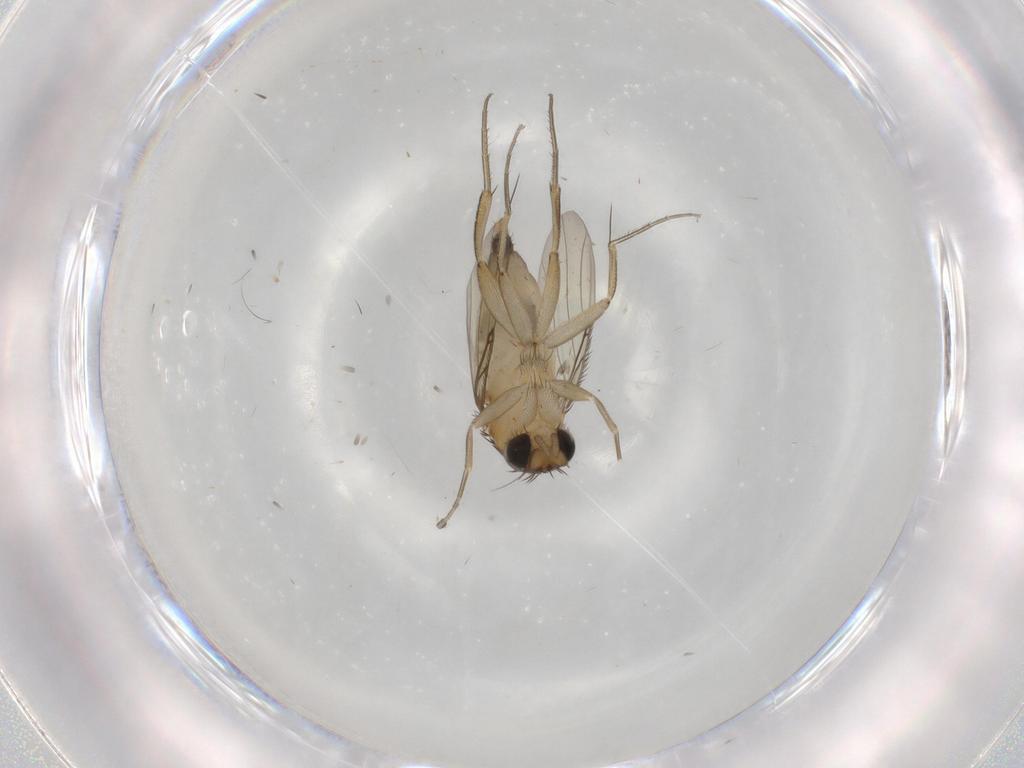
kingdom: Animalia
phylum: Arthropoda
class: Insecta
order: Diptera
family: Phoridae
